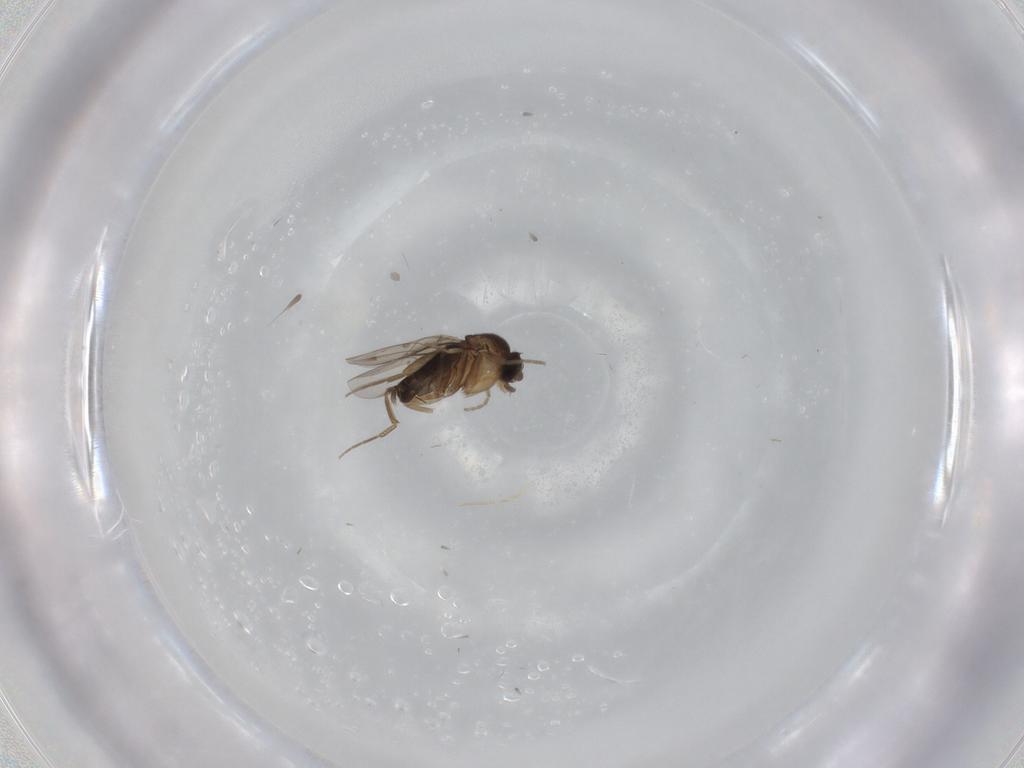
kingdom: Animalia
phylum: Arthropoda
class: Insecta
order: Diptera
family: Phoridae
